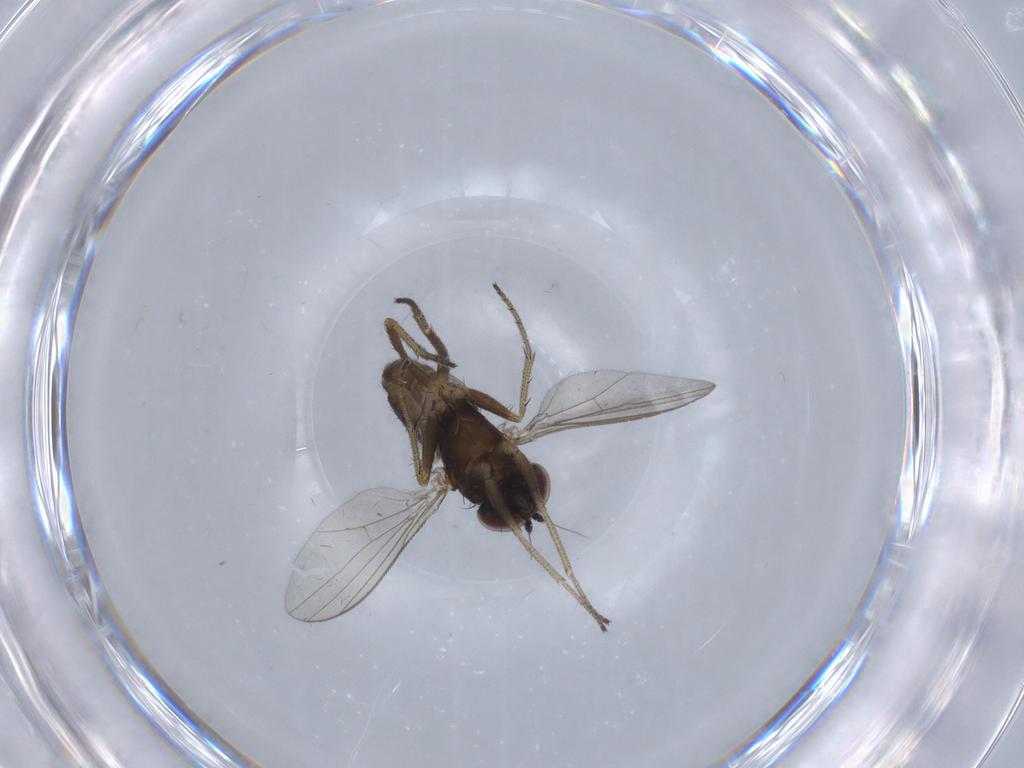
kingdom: Animalia
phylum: Arthropoda
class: Insecta
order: Diptera
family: Dolichopodidae
